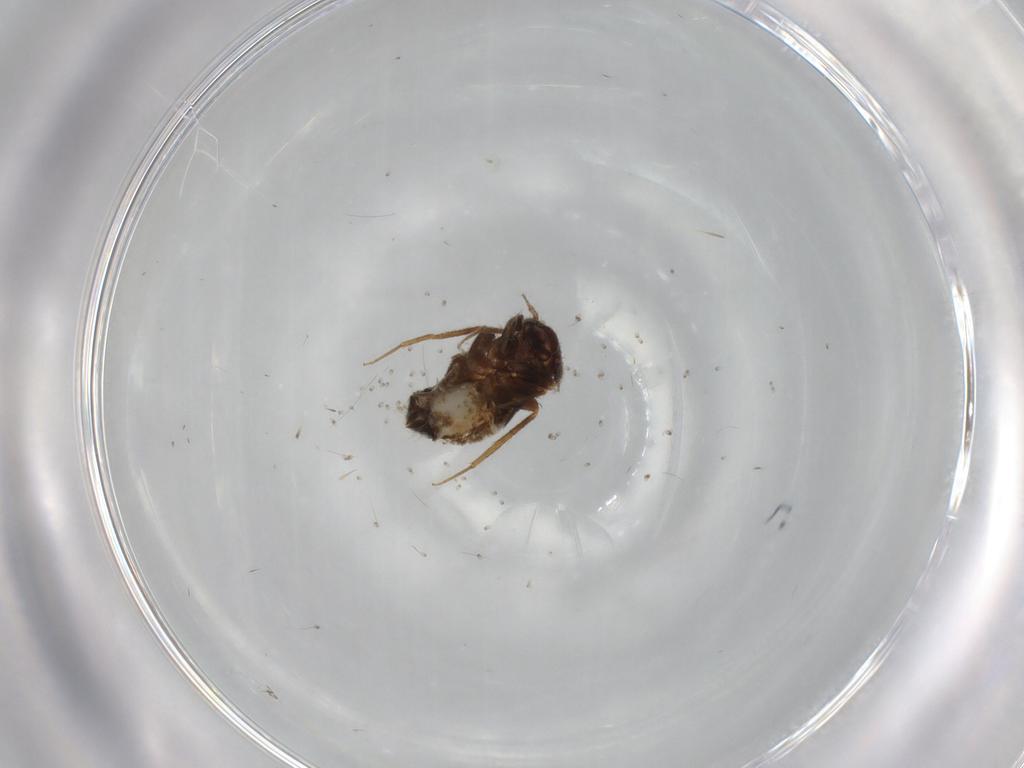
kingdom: Animalia
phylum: Arthropoda
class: Insecta
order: Psocodea
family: Lepidopsocidae
